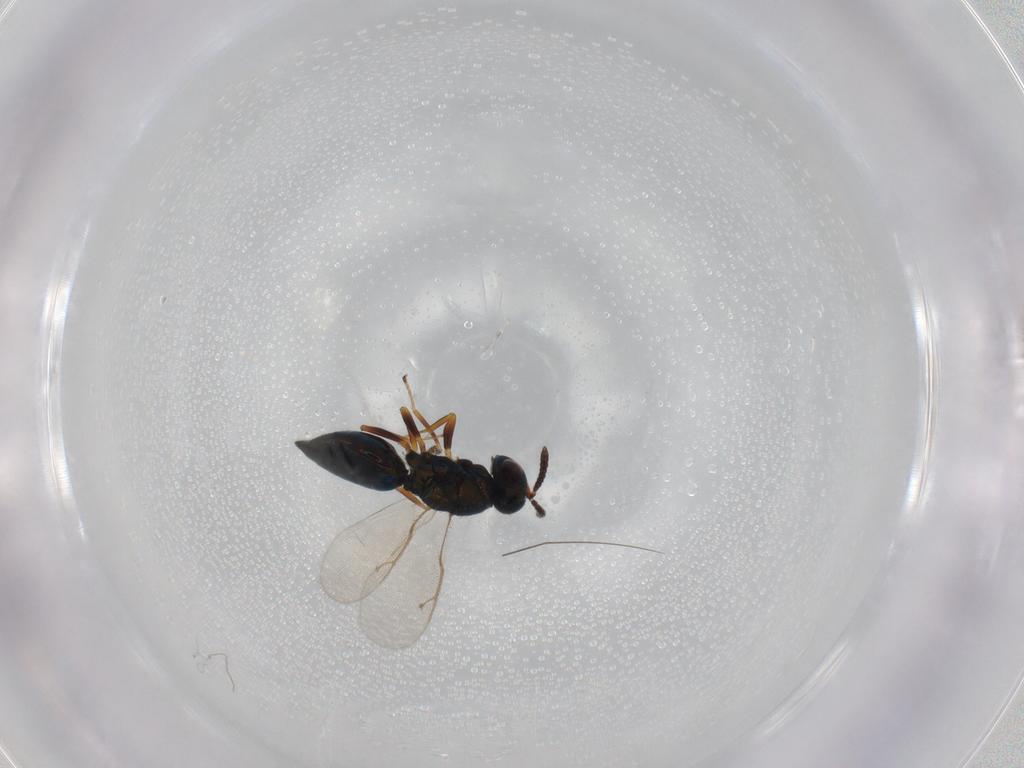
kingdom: Animalia
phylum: Arthropoda
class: Insecta
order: Hymenoptera
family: Pteromalidae
